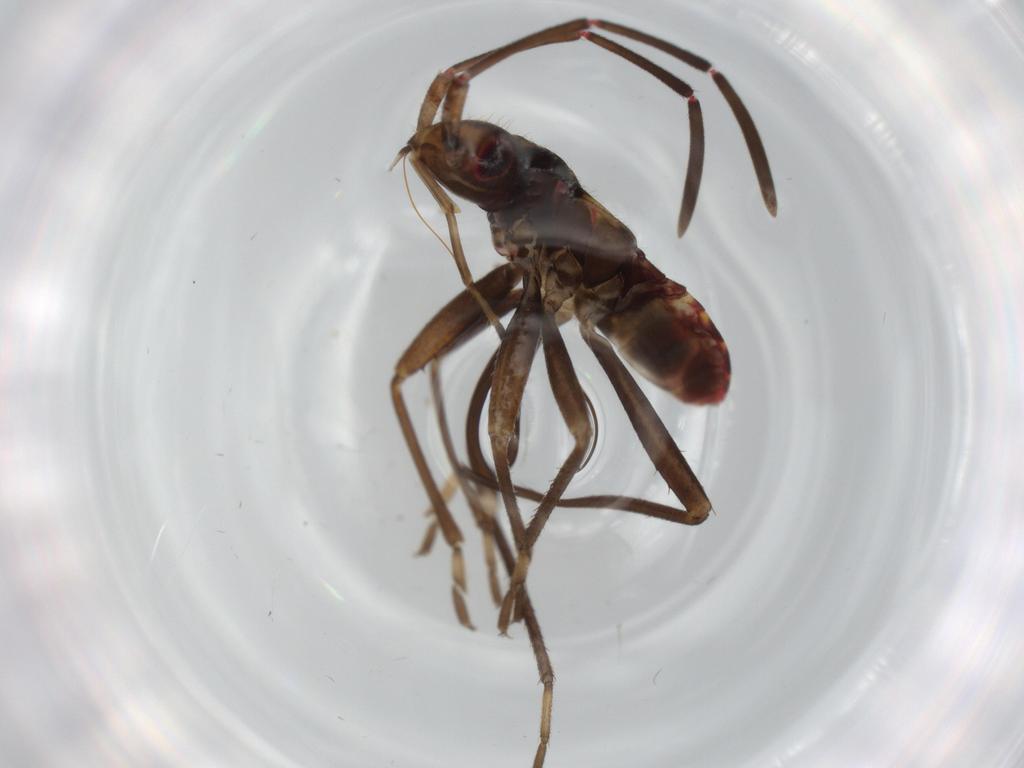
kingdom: Animalia
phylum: Arthropoda
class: Insecta
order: Hemiptera
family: Rhyparochromidae
